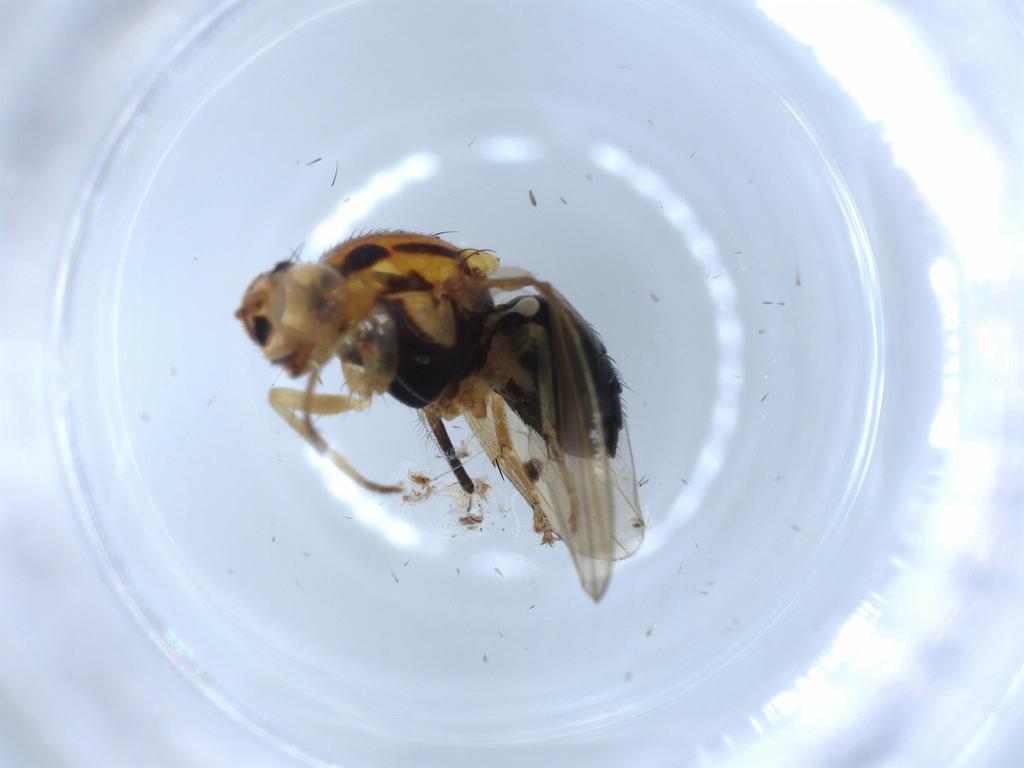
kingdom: Animalia
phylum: Arthropoda
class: Insecta
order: Diptera
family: Cecidomyiidae
